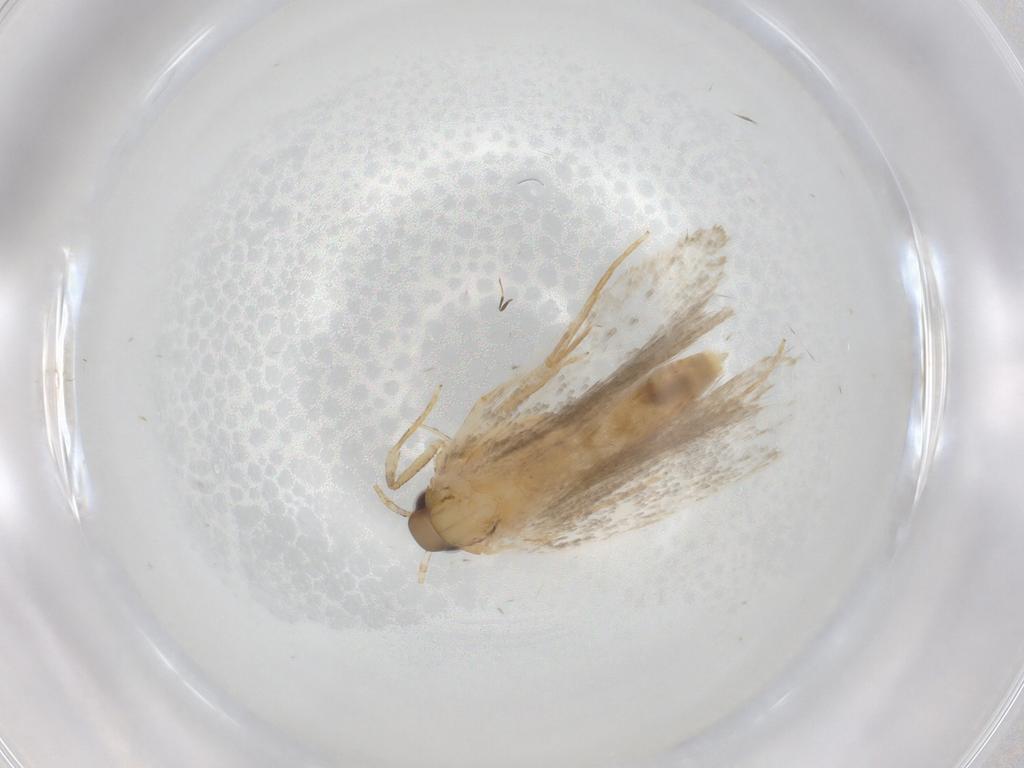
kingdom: Animalia
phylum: Arthropoda
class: Insecta
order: Lepidoptera
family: Autostichidae
